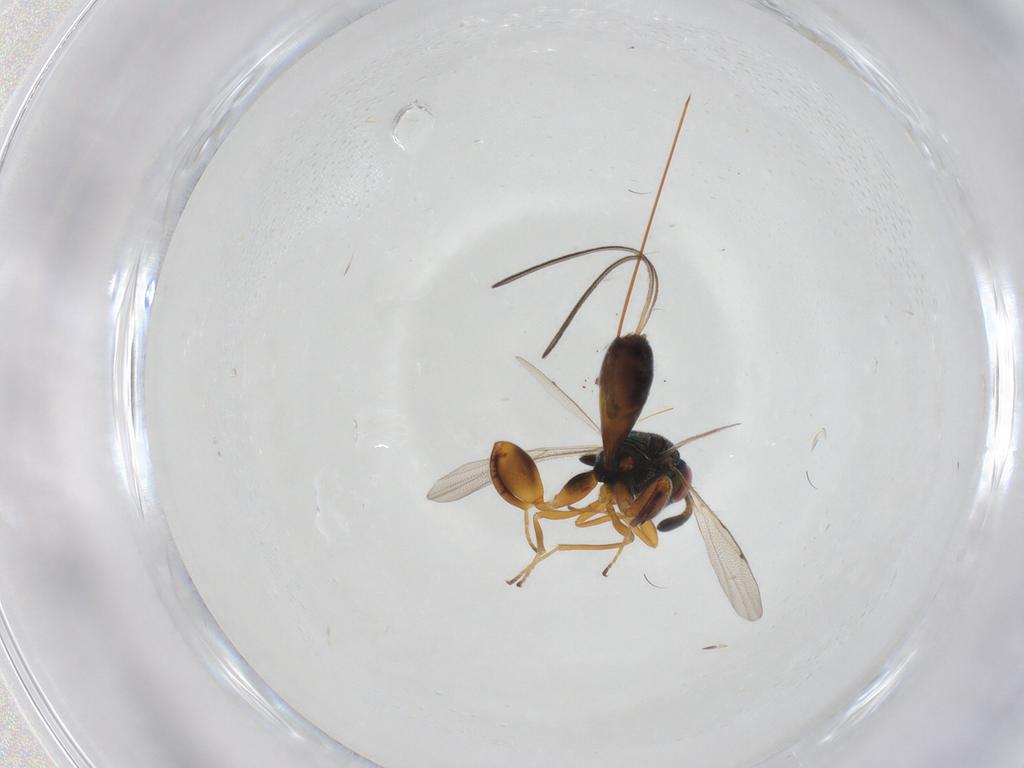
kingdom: Animalia
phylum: Arthropoda
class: Insecta
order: Hymenoptera
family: Torymidae
